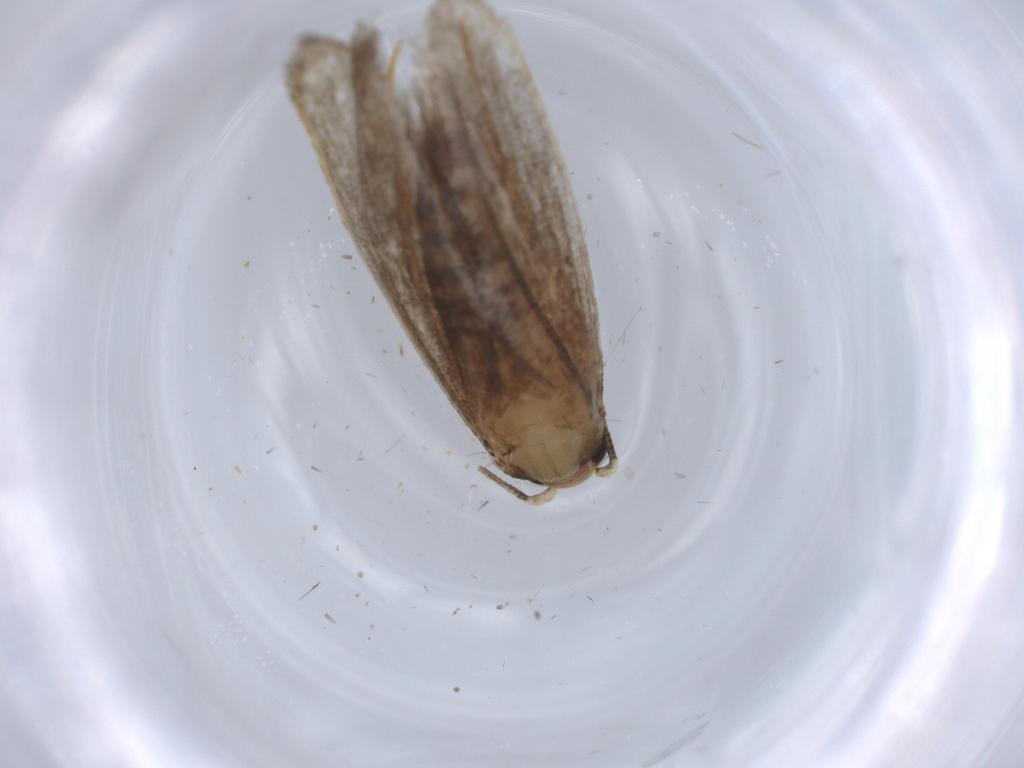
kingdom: Animalia
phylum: Arthropoda
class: Insecta
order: Lepidoptera
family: Tineidae
